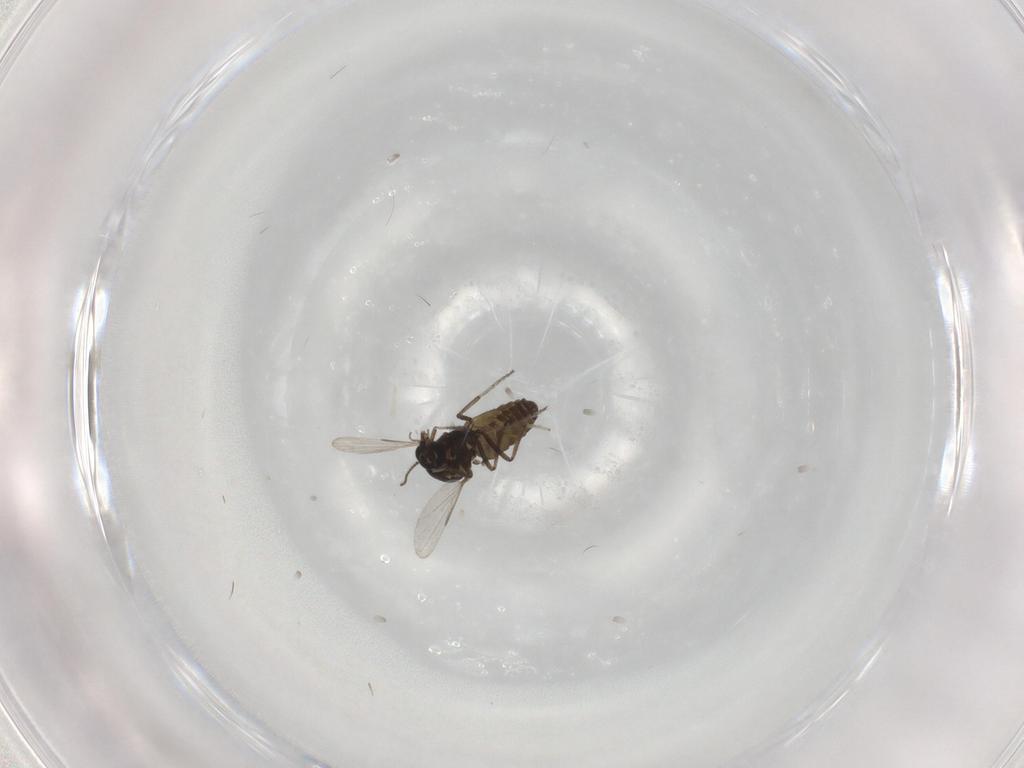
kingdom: Animalia
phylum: Arthropoda
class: Insecta
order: Diptera
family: Ceratopogonidae
